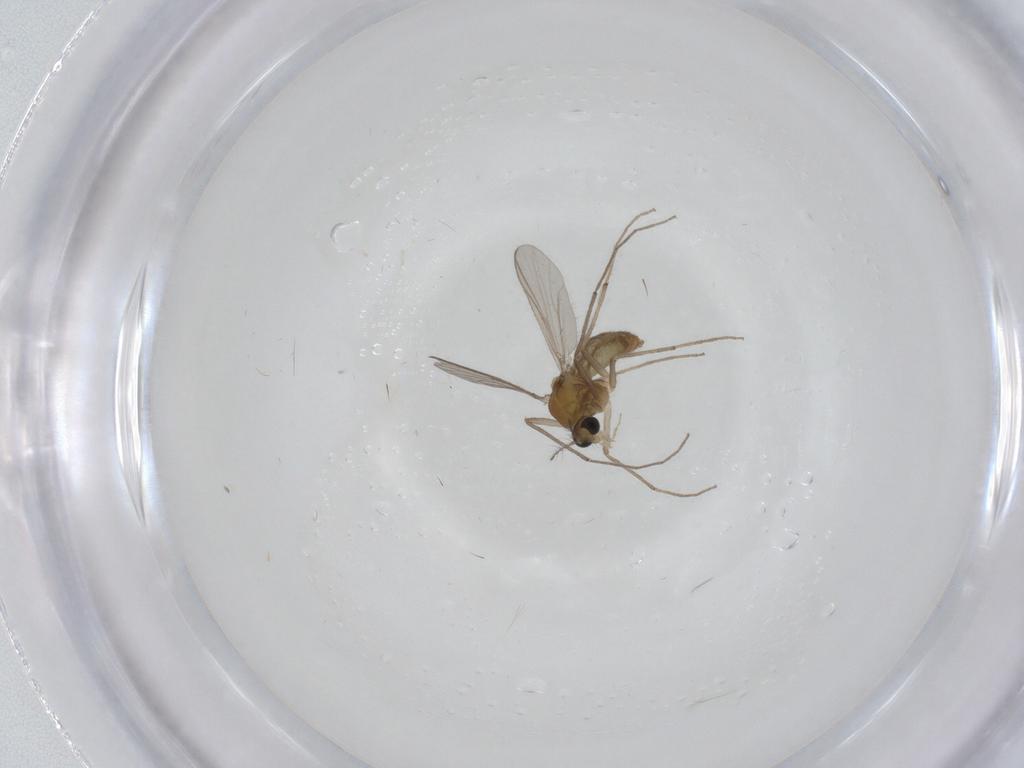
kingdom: Animalia
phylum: Arthropoda
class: Insecta
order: Diptera
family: Chironomidae
